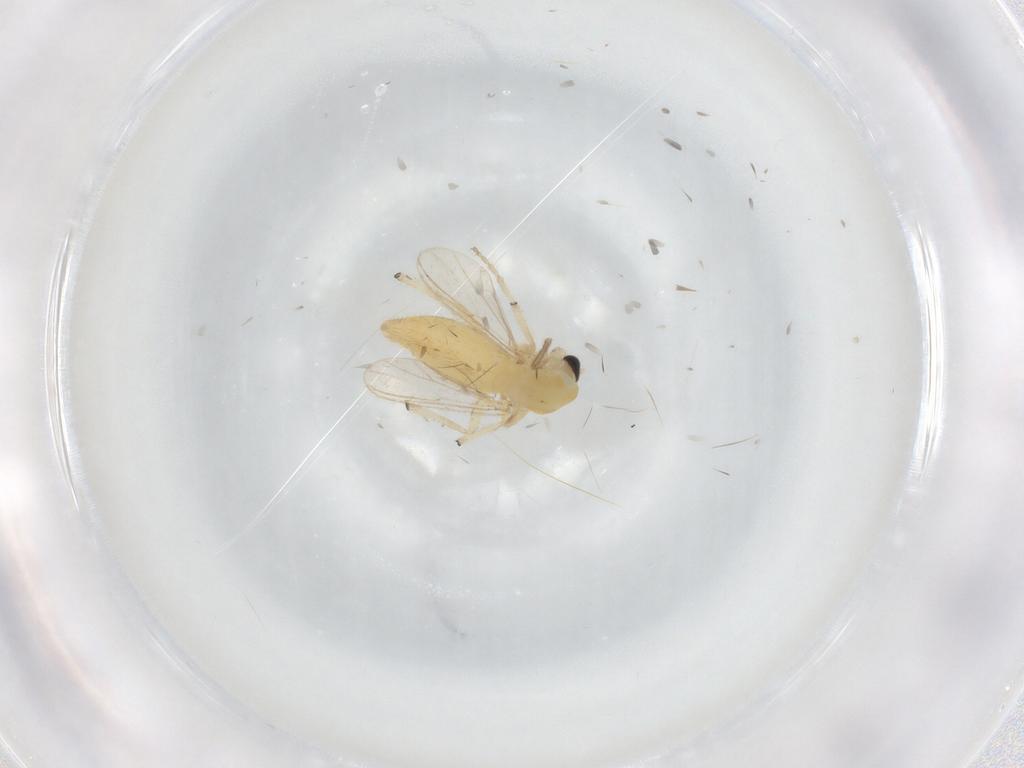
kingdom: Animalia
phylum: Arthropoda
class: Insecta
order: Diptera
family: Chironomidae
